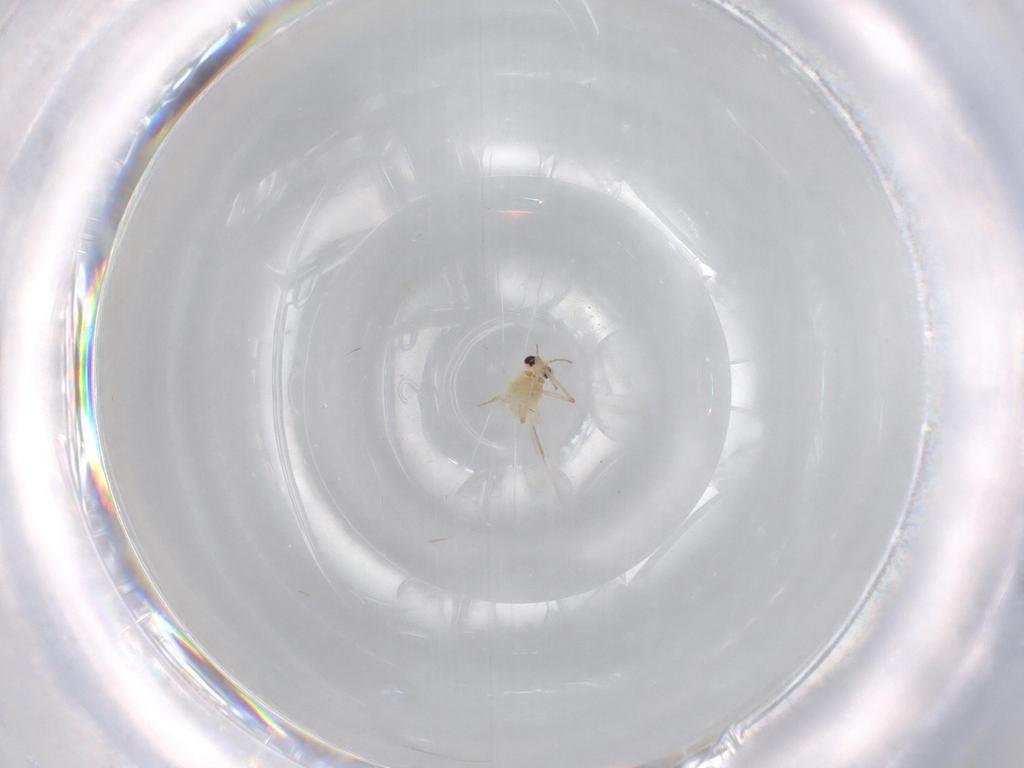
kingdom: Animalia
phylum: Arthropoda
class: Insecta
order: Diptera
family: Chironomidae
